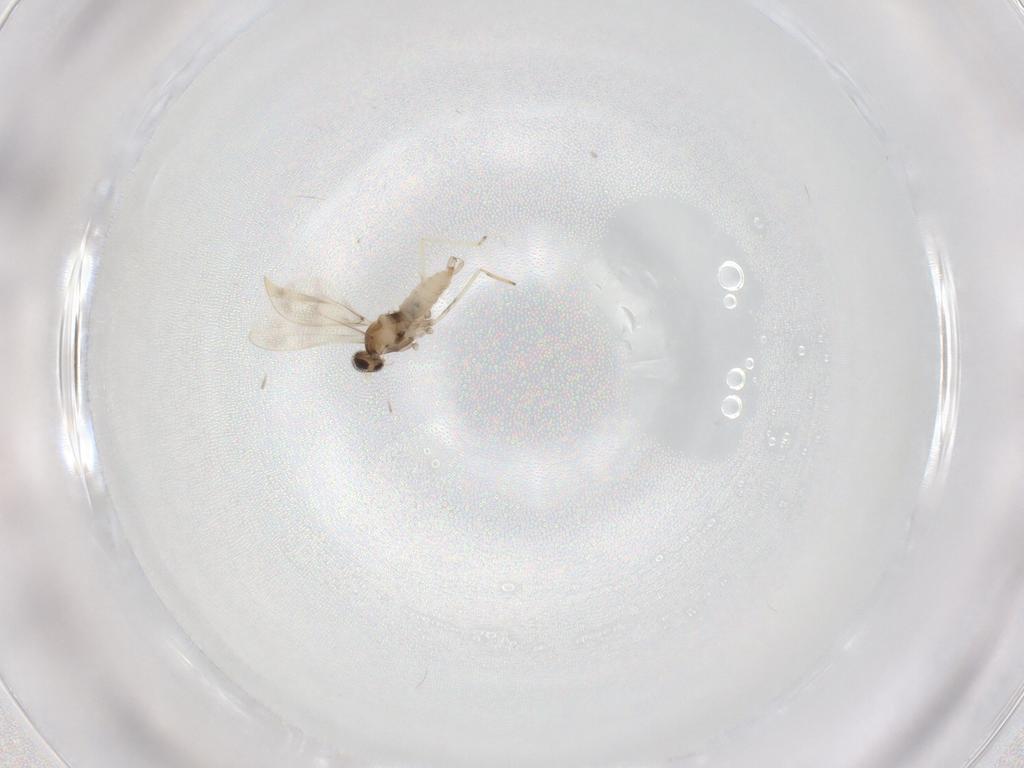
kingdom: Animalia
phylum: Arthropoda
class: Insecta
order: Diptera
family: Cecidomyiidae
